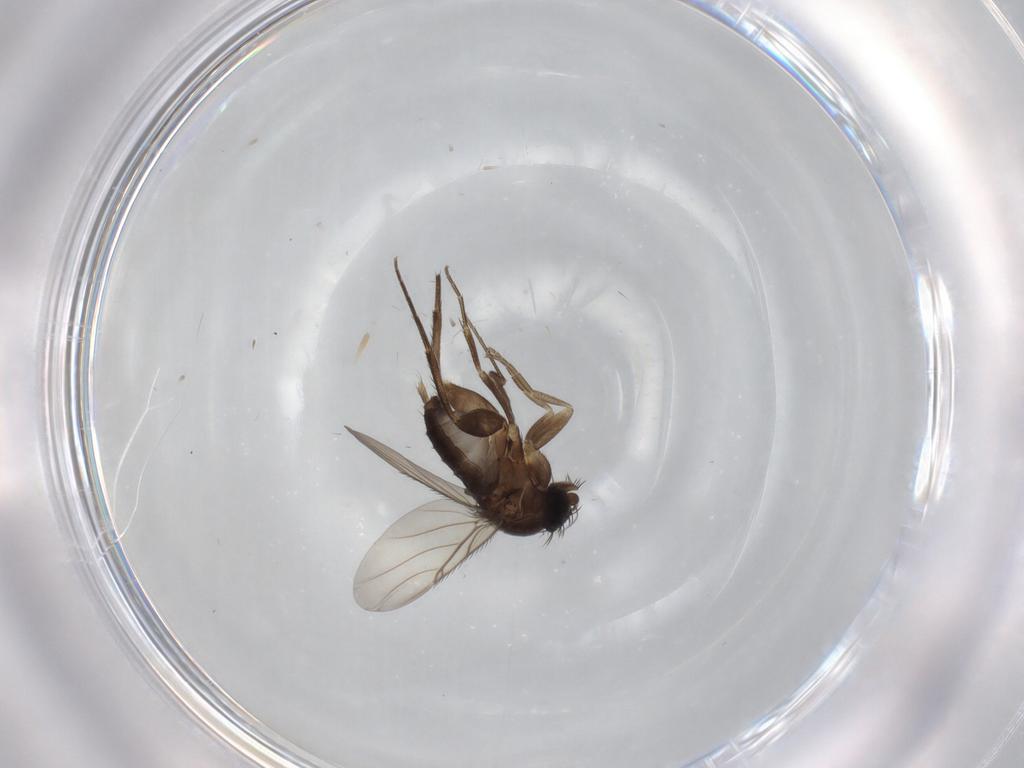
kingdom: Animalia
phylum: Arthropoda
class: Insecta
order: Diptera
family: Phoridae
